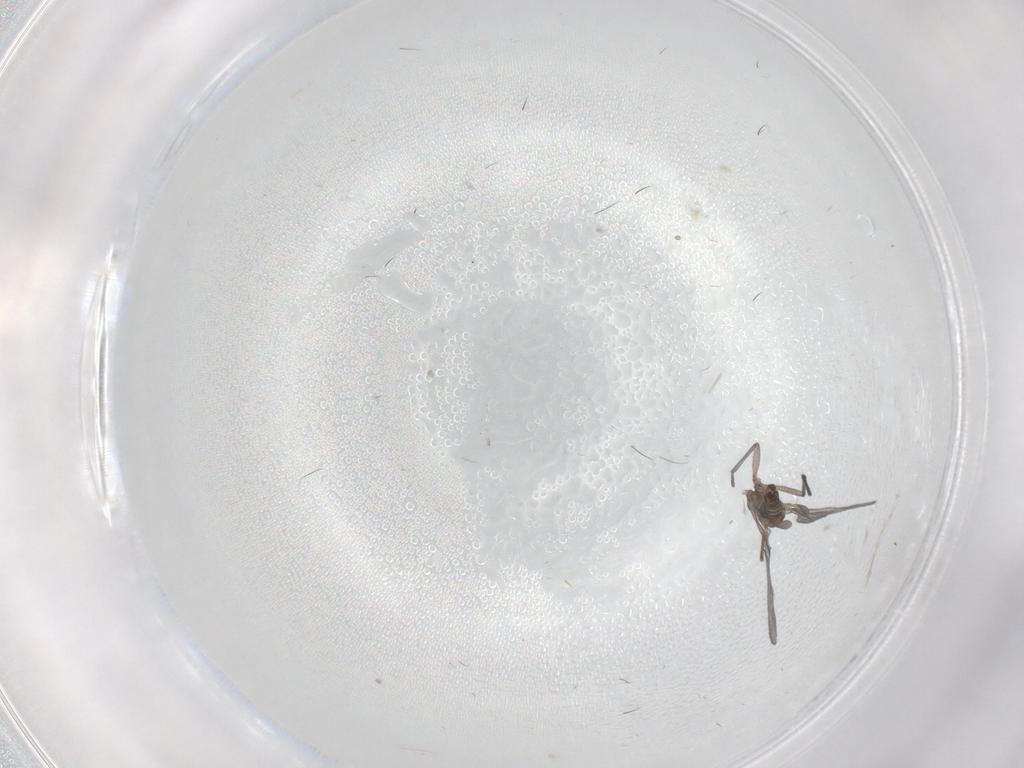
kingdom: Animalia
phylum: Arthropoda
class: Insecta
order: Diptera
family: Sciaridae
